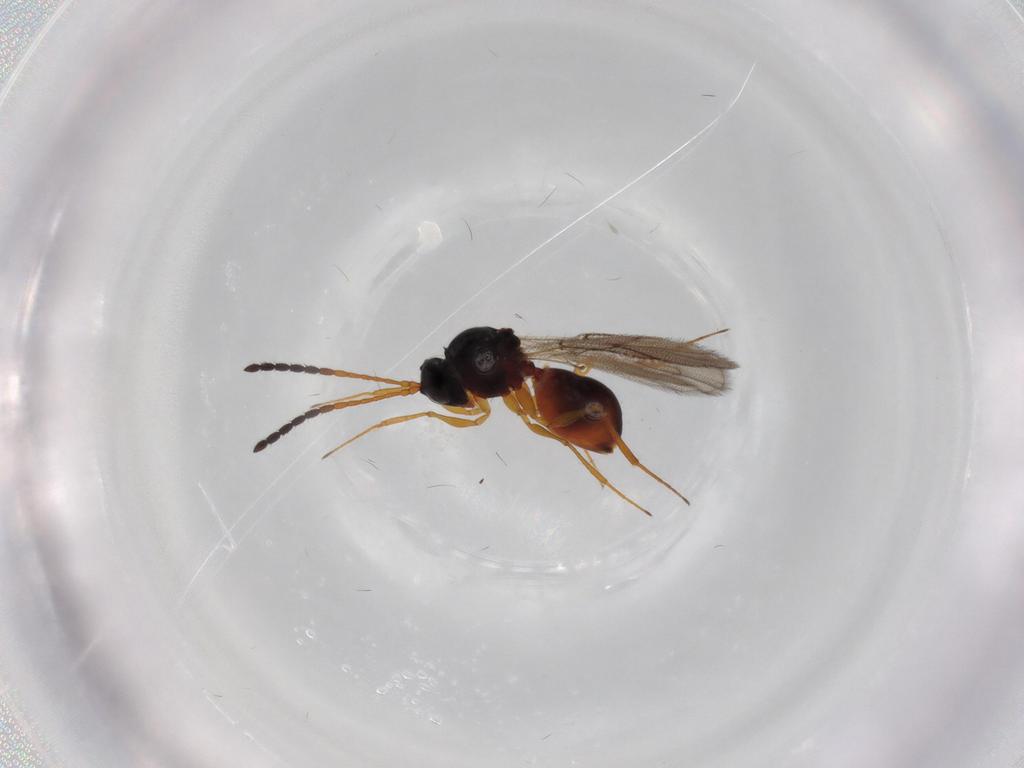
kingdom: Animalia
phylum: Arthropoda
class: Insecta
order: Hymenoptera
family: Figitidae
